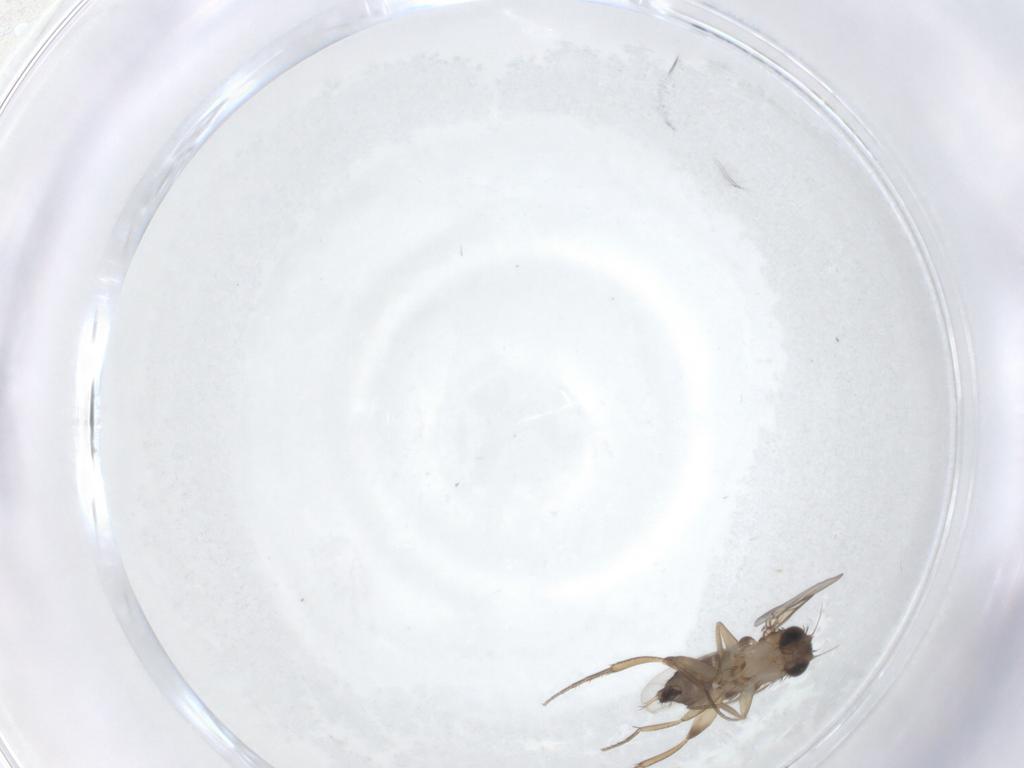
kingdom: Animalia
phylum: Arthropoda
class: Insecta
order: Diptera
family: Phoridae
